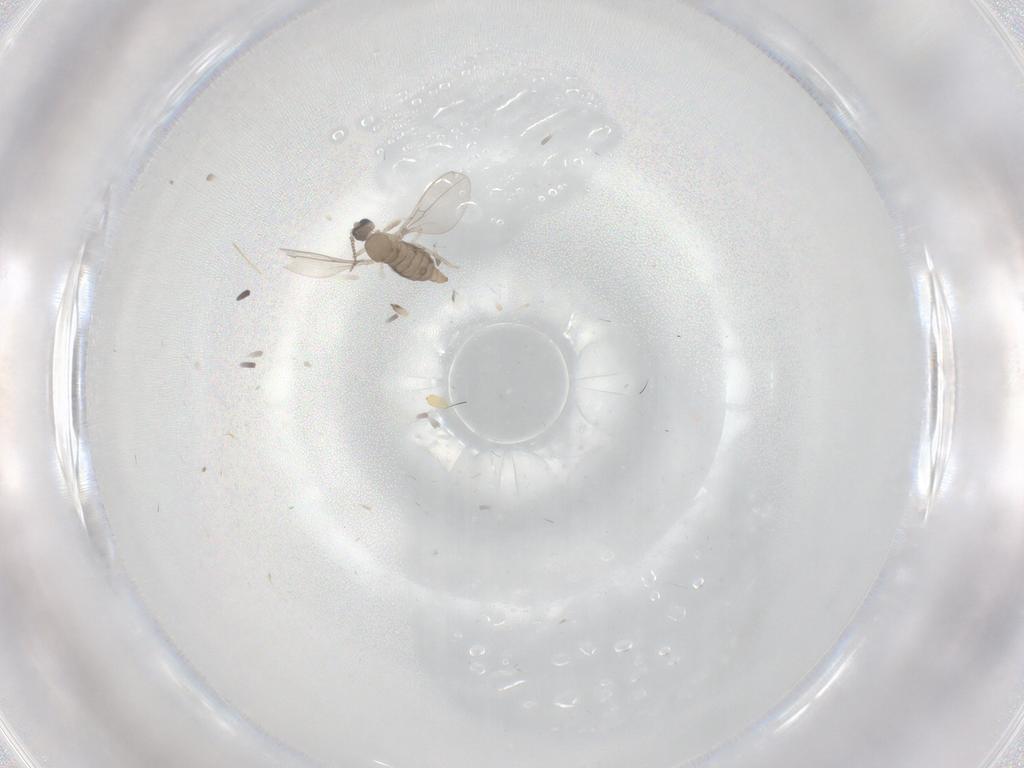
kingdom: Animalia
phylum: Arthropoda
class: Insecta
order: Diptera
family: Cecidomyiidae
